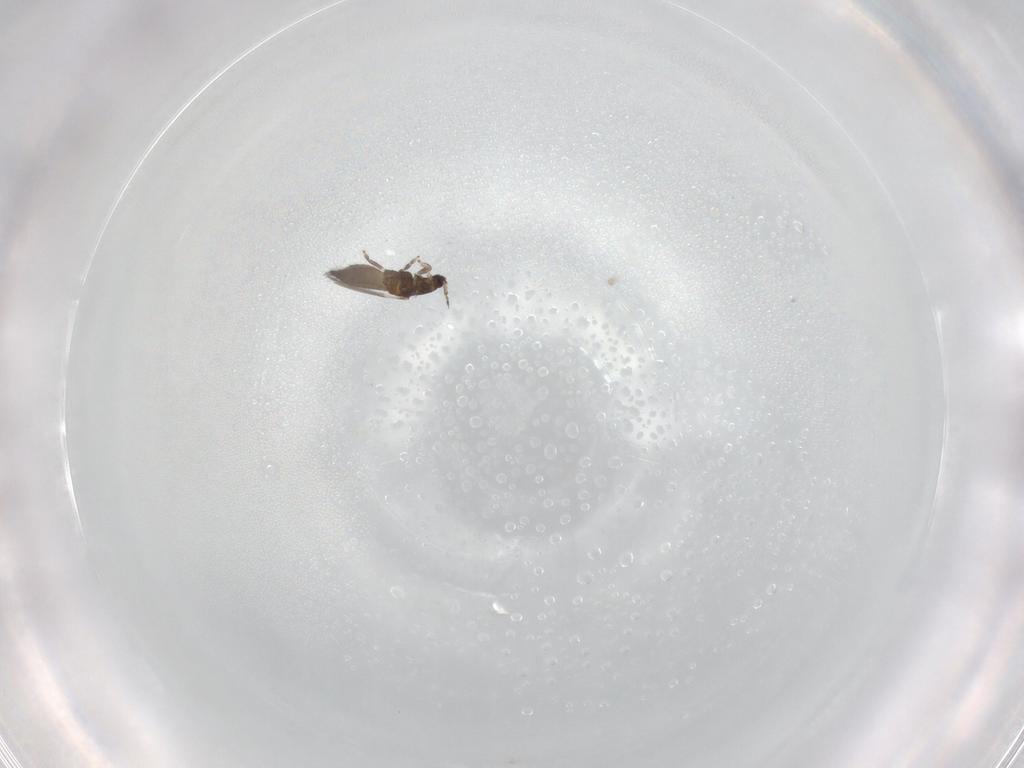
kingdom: Animalia
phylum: Arthropoda
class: Insecta
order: Thysanoptera
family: Thripidae
